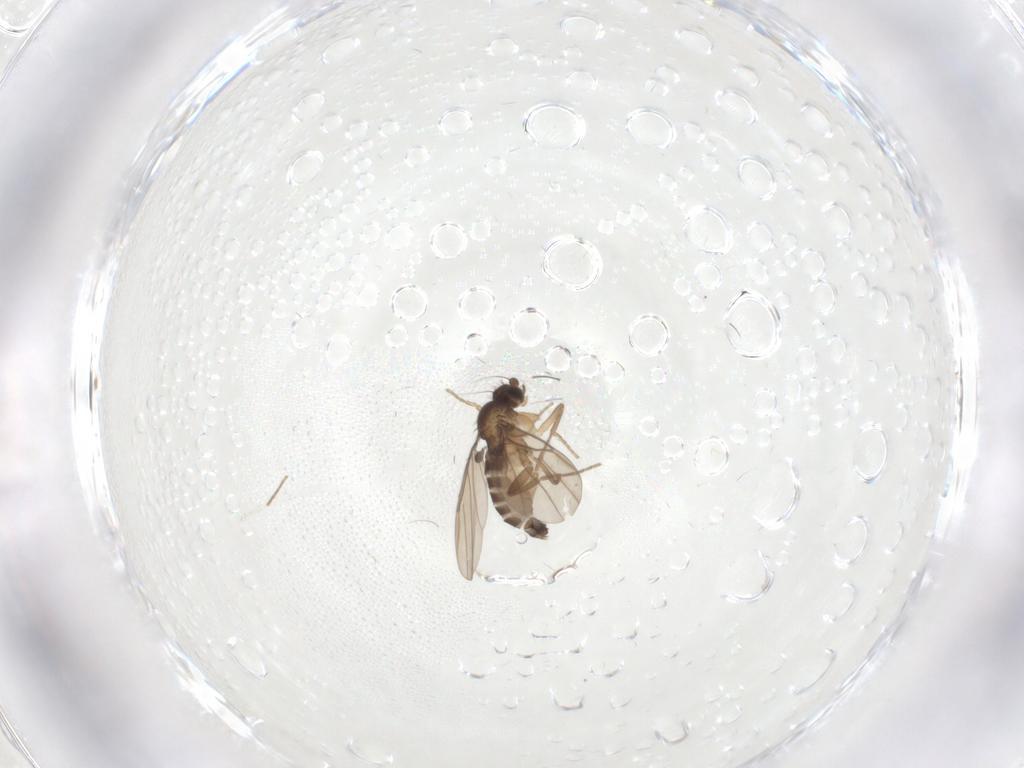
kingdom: Animalia
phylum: Arthropoda
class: Insecta
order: Diptera
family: Phoridae
